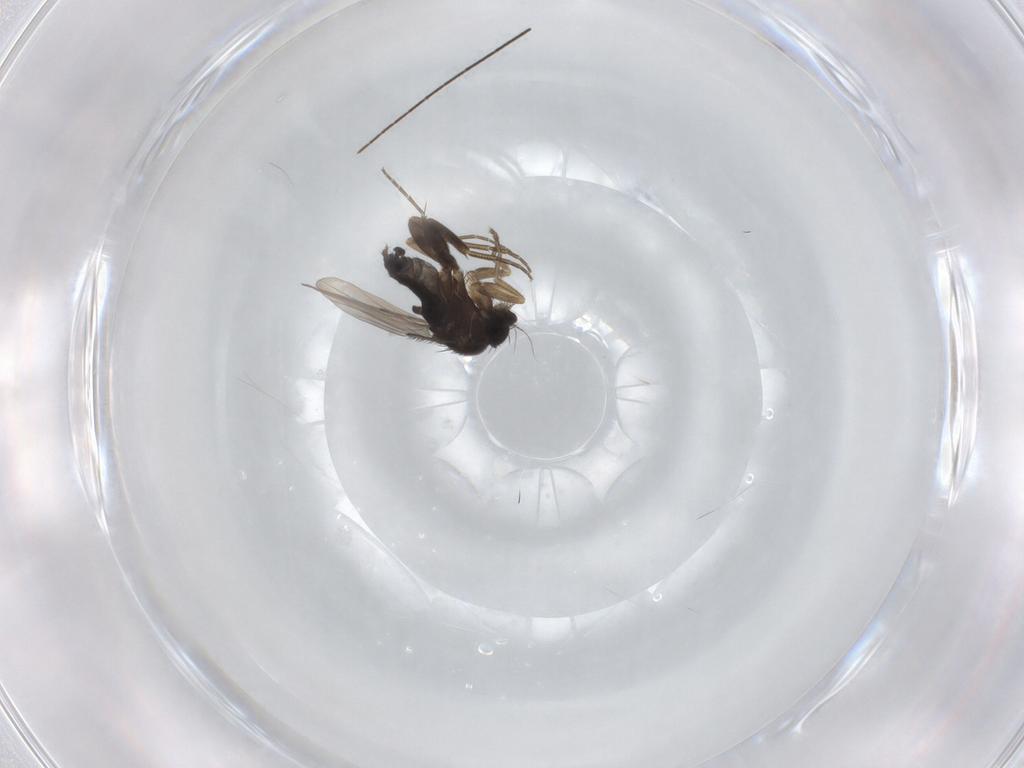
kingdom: Animalia
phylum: Arthropoda
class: Insecta
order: Diptera
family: Phoridae
